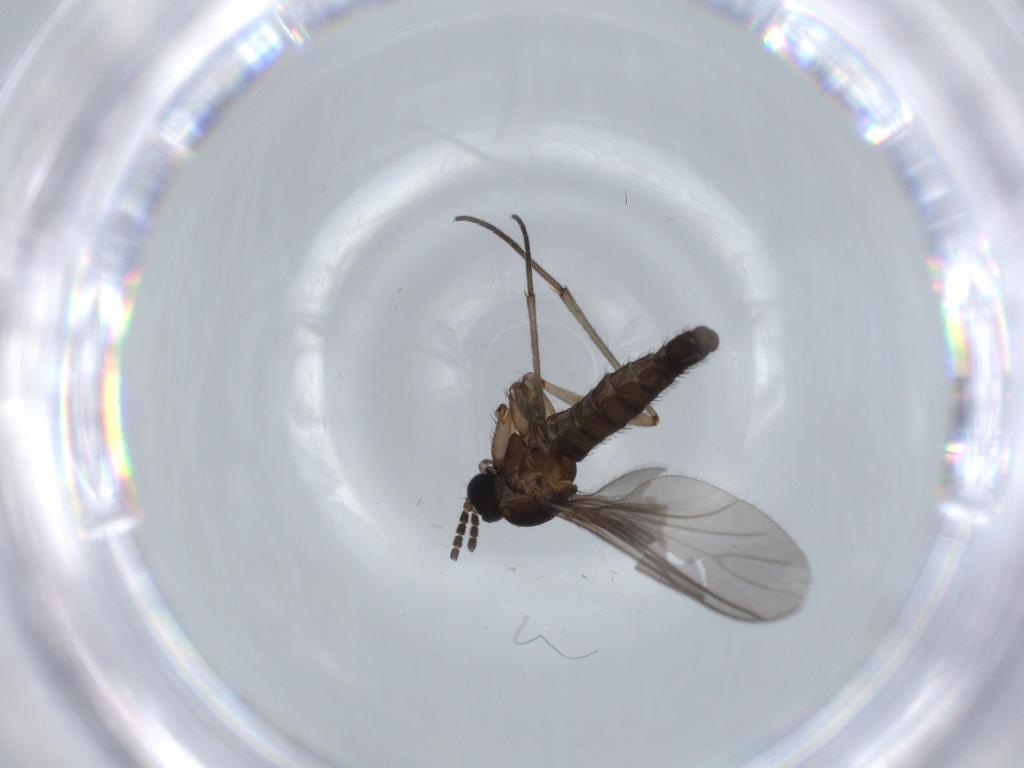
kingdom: Animalia
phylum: Arthropoda
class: Insecta
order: Diptera
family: Sciaridae
